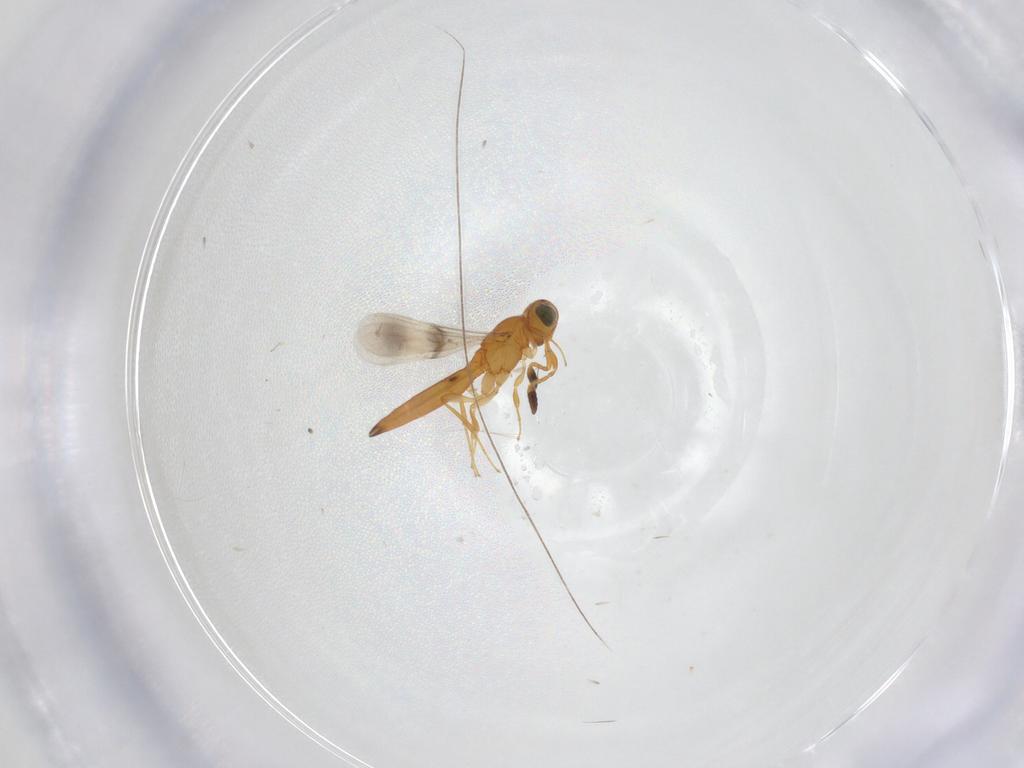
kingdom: Animalia
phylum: Arthropoda
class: Insecta
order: Hymenoptera
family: Scelionidae
